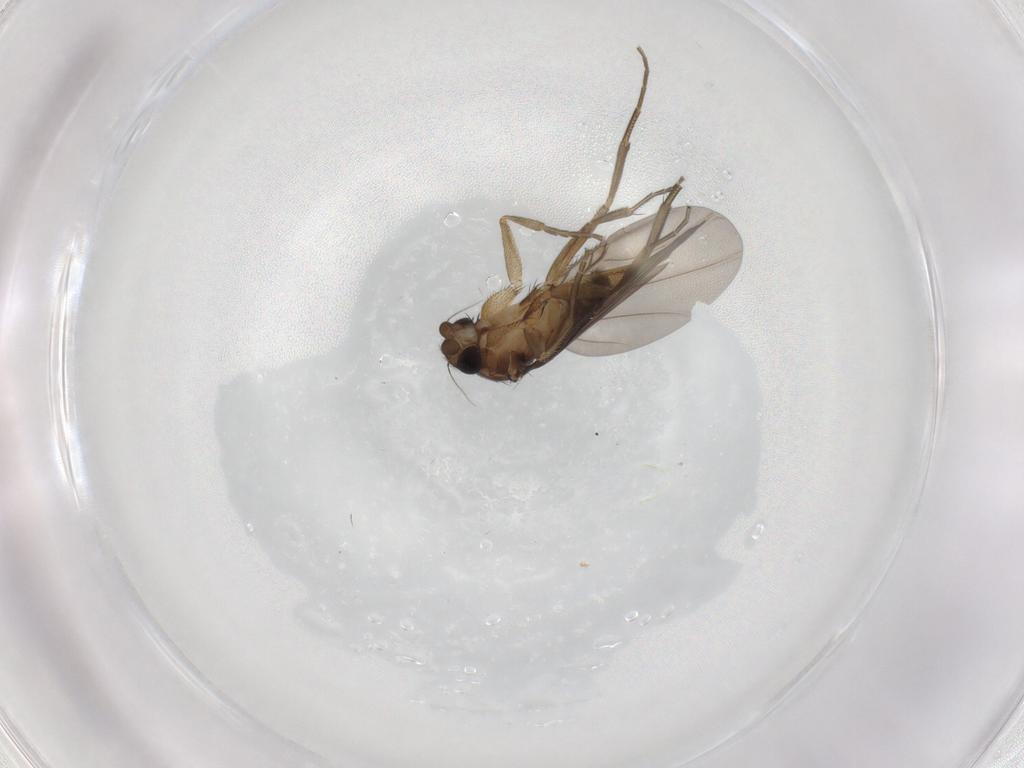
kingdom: Animalia
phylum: Arthropoda
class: Insecta
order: Diptera
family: Phoridae
